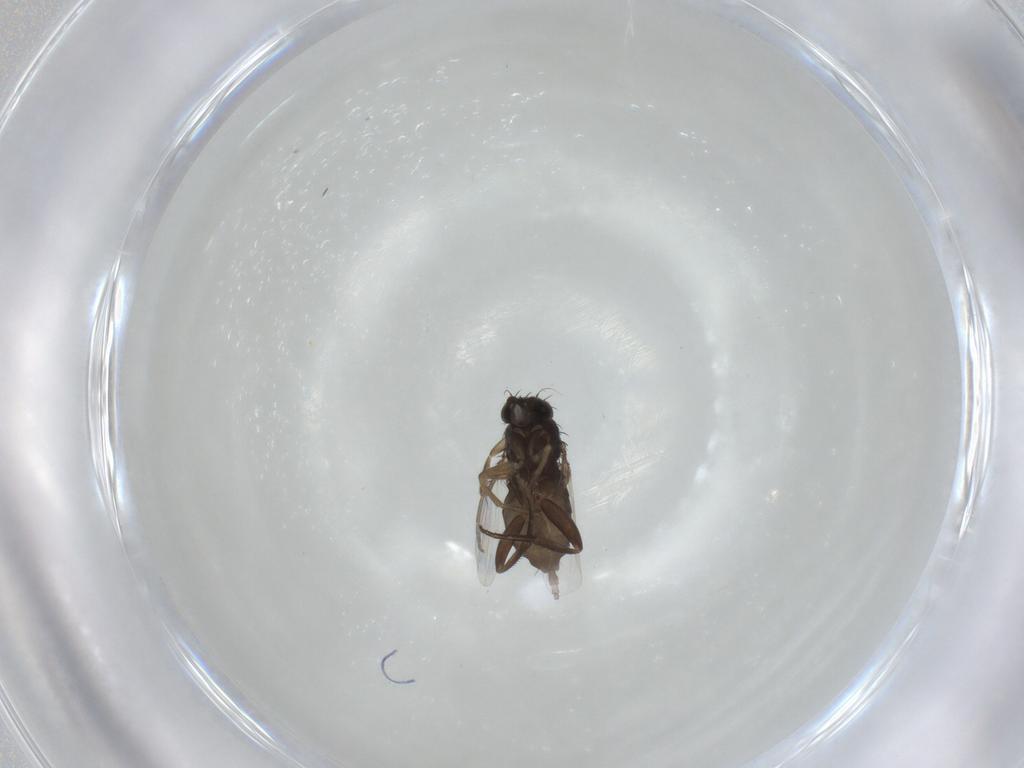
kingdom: Animalia
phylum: Arthropoda
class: Insecta
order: Diptera
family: Phoridae
